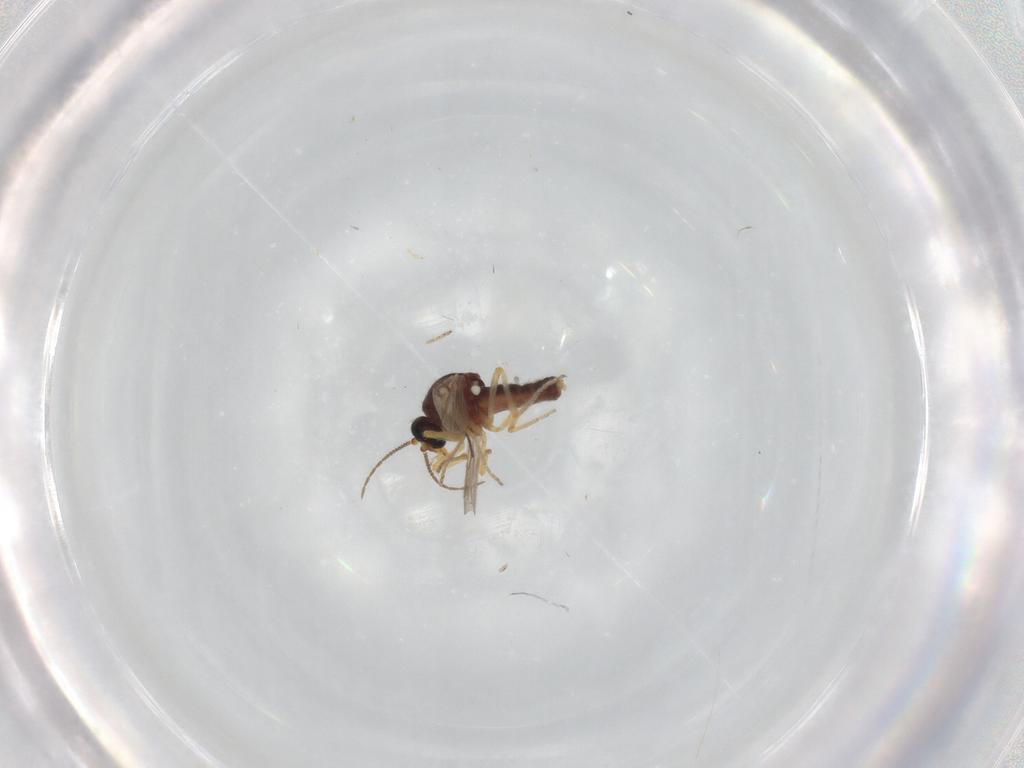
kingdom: Animalia
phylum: Arthropoda
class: Insecta
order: Diptera
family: Ceratopogonidae
